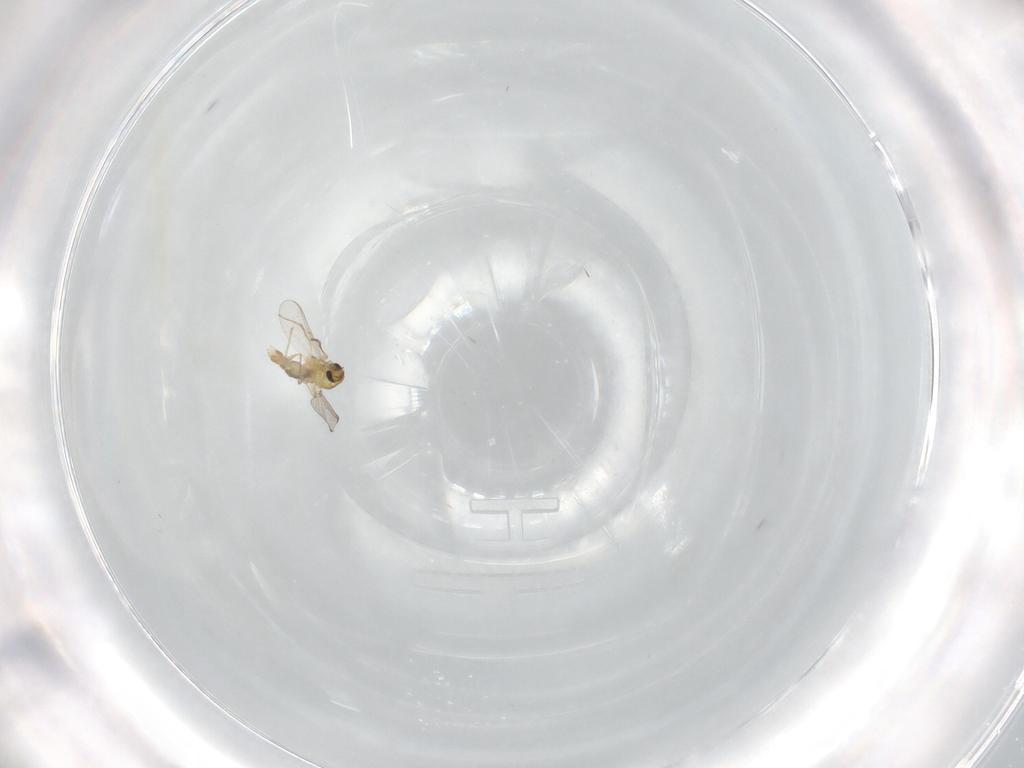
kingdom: Animalia
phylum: Arthropoda
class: Insecta
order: Diptera
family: Chironomidae
